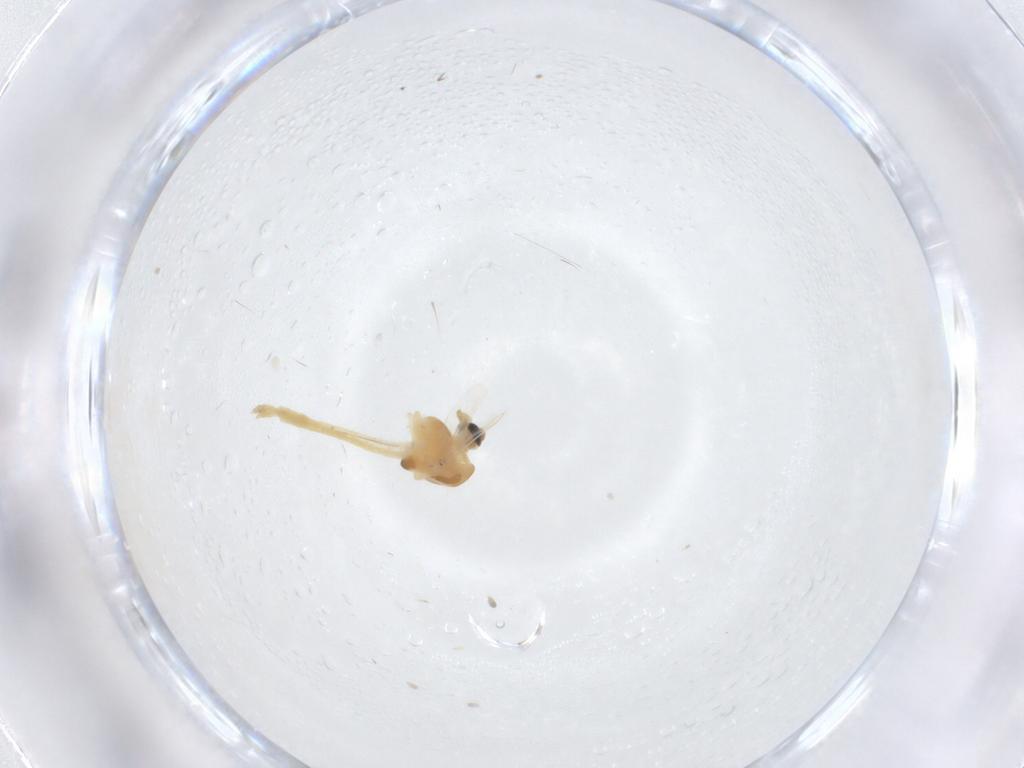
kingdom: Animalia
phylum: Arthropoda
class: Insecta
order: Diptera
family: Chironomidae
